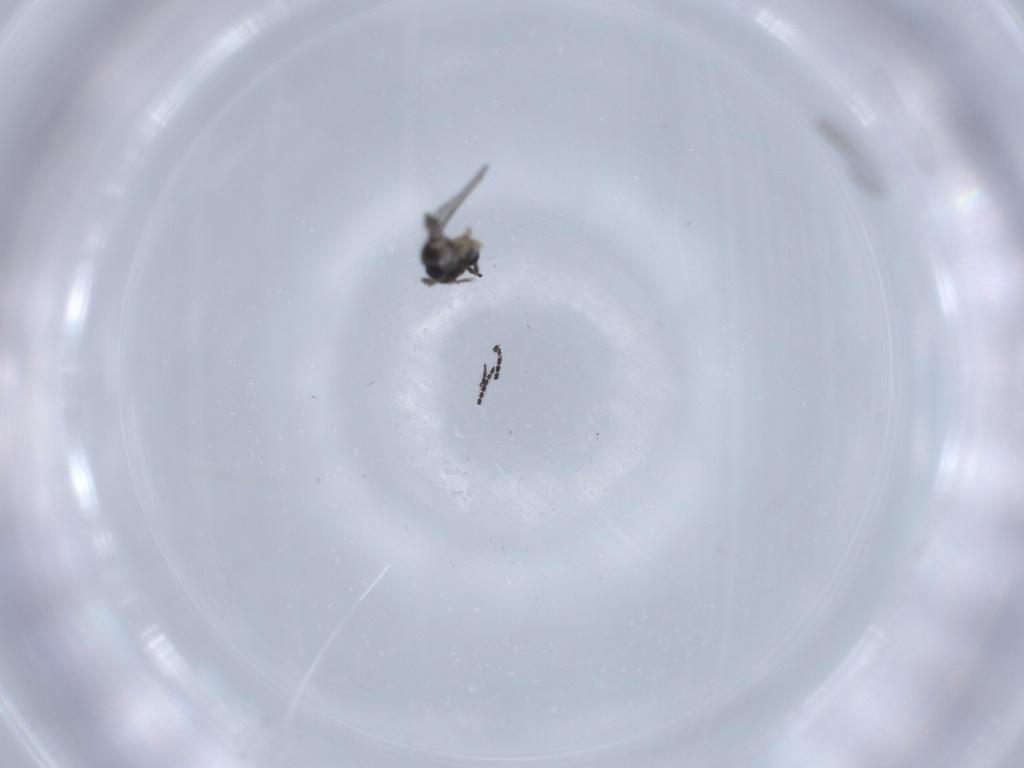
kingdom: Animalia
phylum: Arthropoda
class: Insecta
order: Diptera
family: Sciaridae
